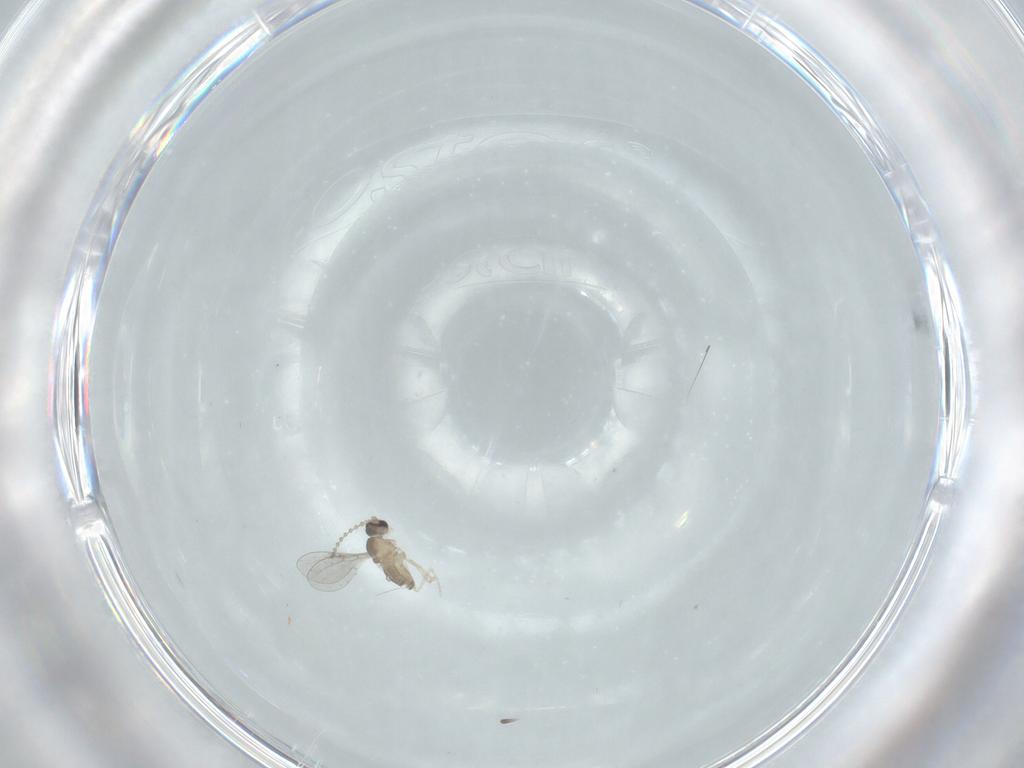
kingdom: Animalia
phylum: Arthropoda
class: Insecta
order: Diptera
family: Cecidomyiidae
